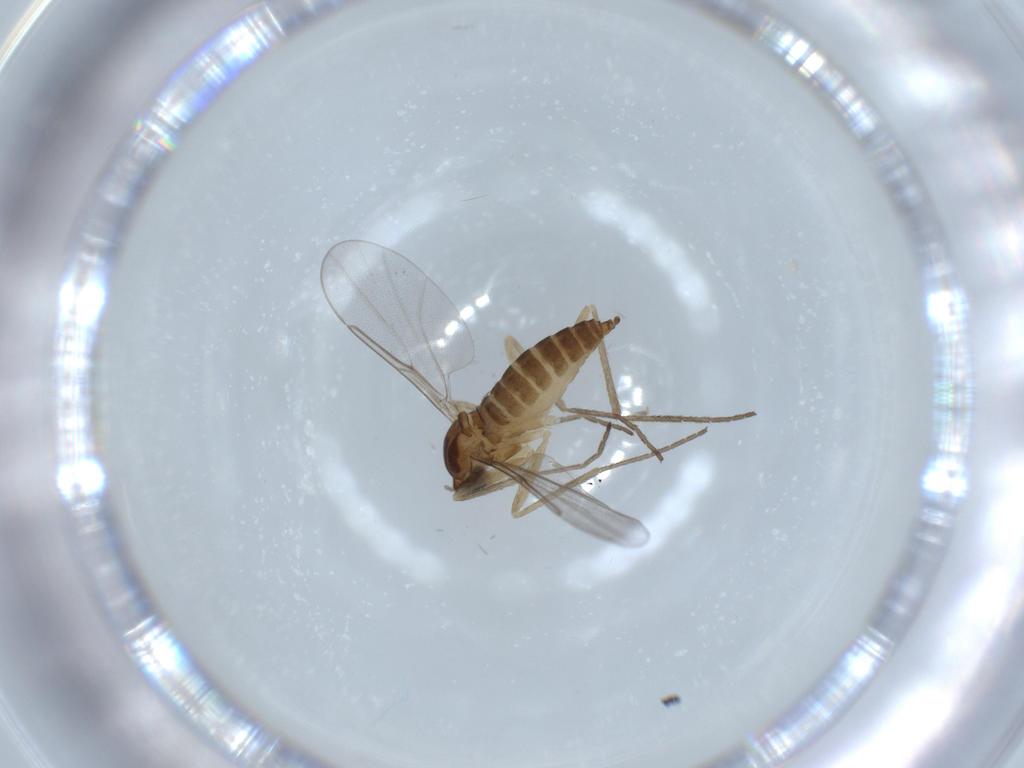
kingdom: Animalia
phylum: Arthropoda
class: Insecta
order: Diptera
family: Cecidomyiidae
